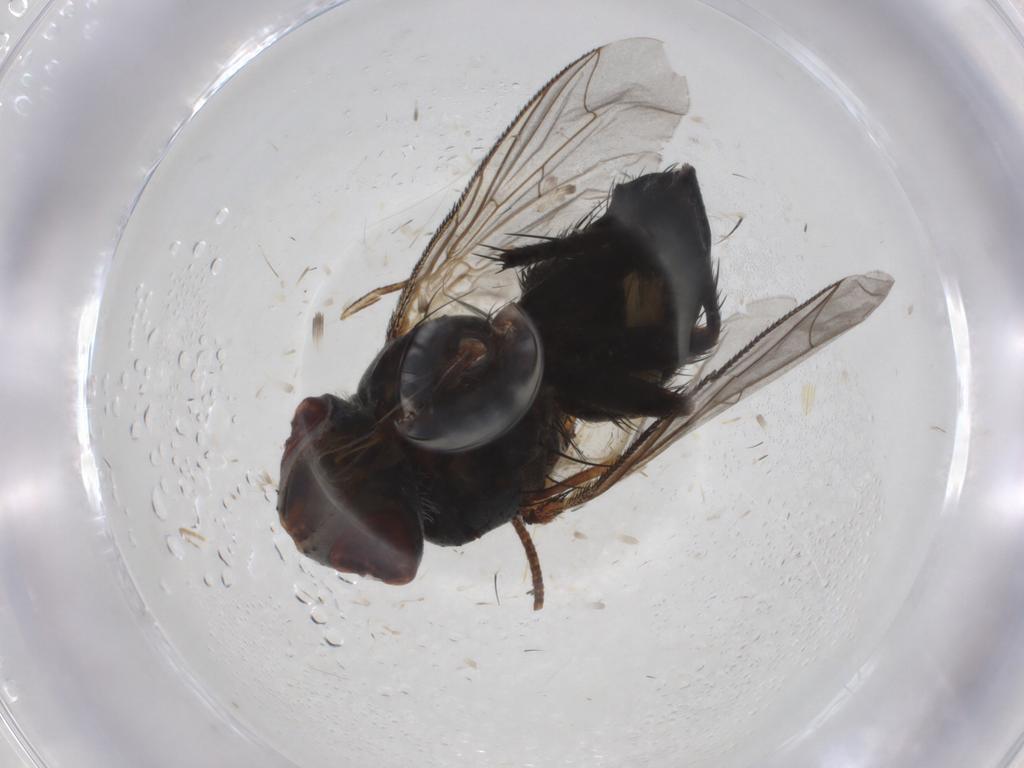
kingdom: Animalia
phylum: Arthropoda
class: Insecta
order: Diptera
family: Tachinidae
